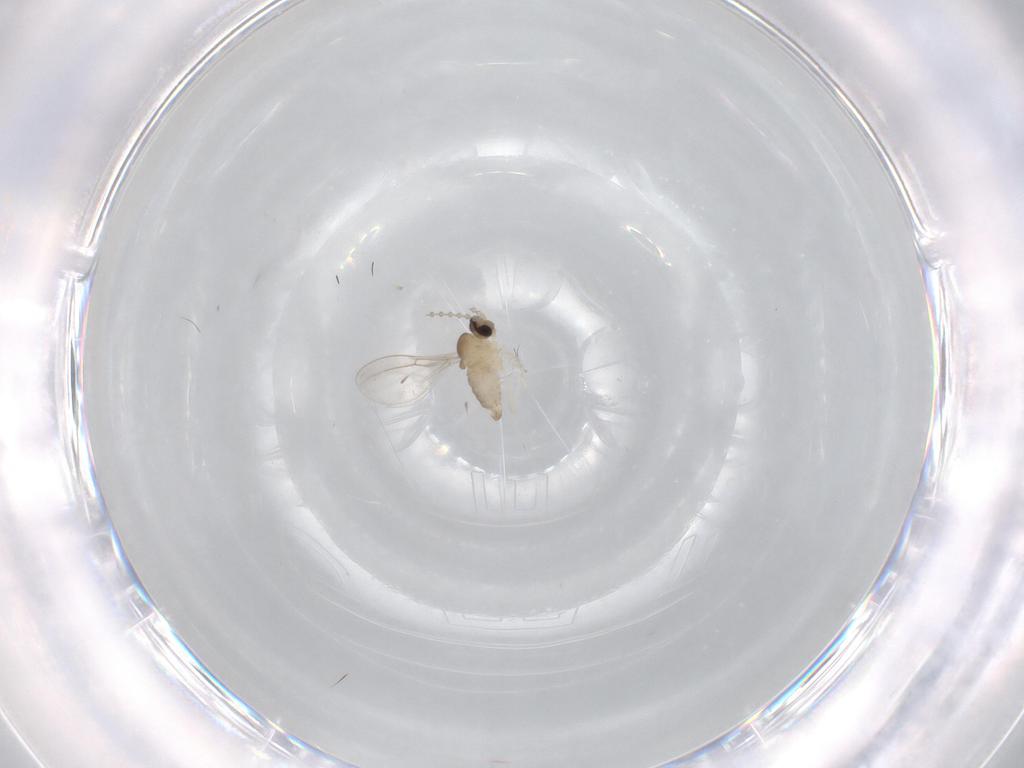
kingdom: Animalia
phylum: Arthropoda
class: Insecta
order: Diptera
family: Cecidomyiidae
